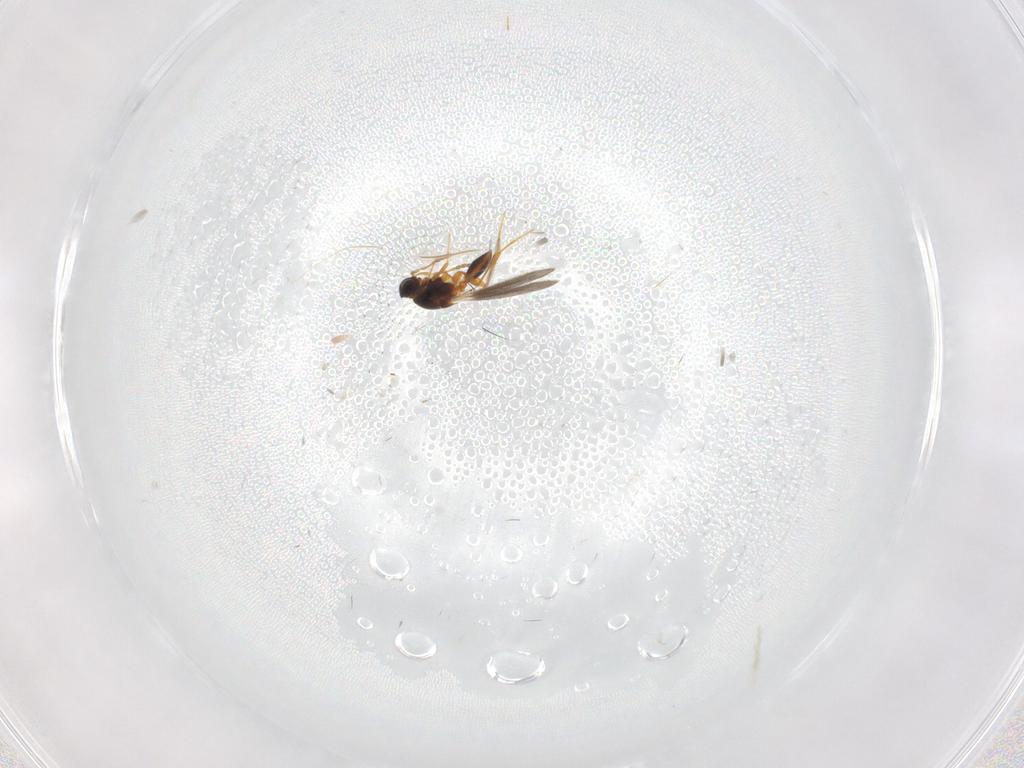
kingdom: Animalia
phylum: Arthropoda
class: Insecta
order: Hymenoptera
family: Platygastridae
